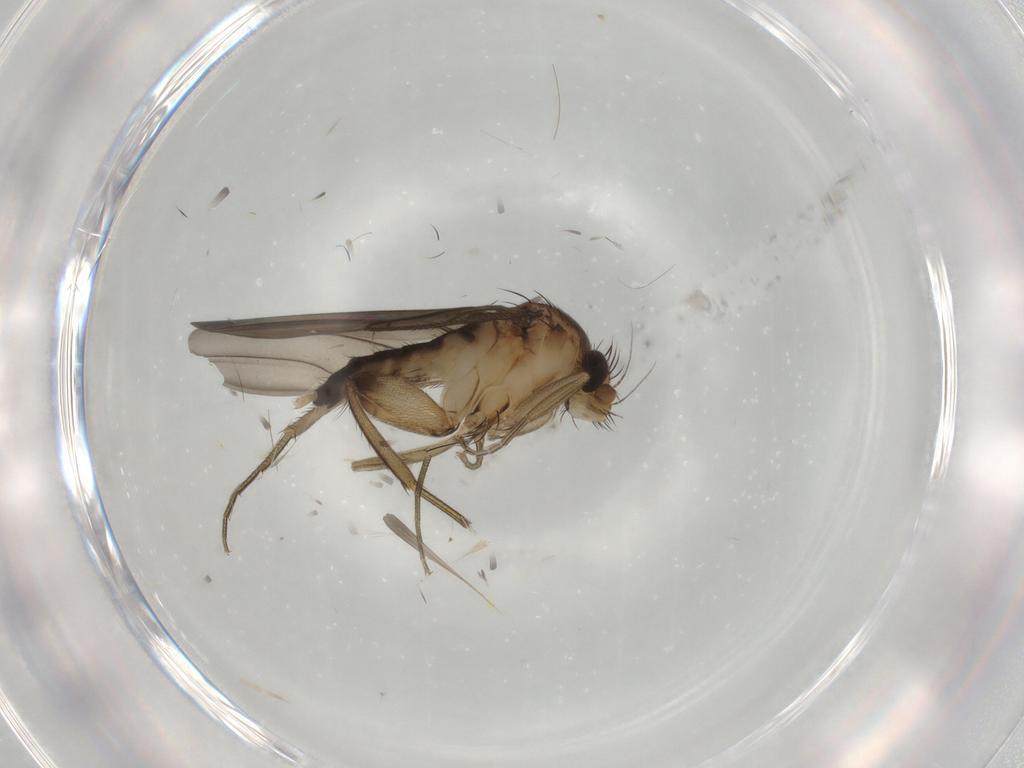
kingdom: Animalia
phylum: Arthropoda
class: Insecta
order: Diptera
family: Phoridae
